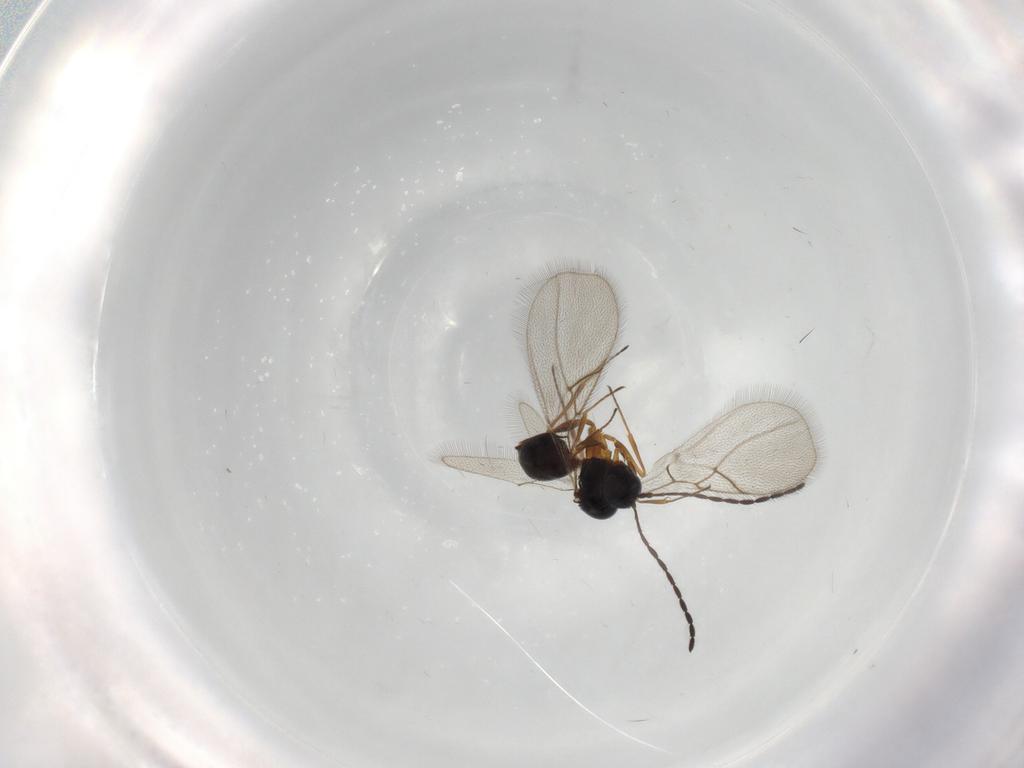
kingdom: Animalia
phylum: Arthropoda
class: Insecta
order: Hymenoptera
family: Figitidae
